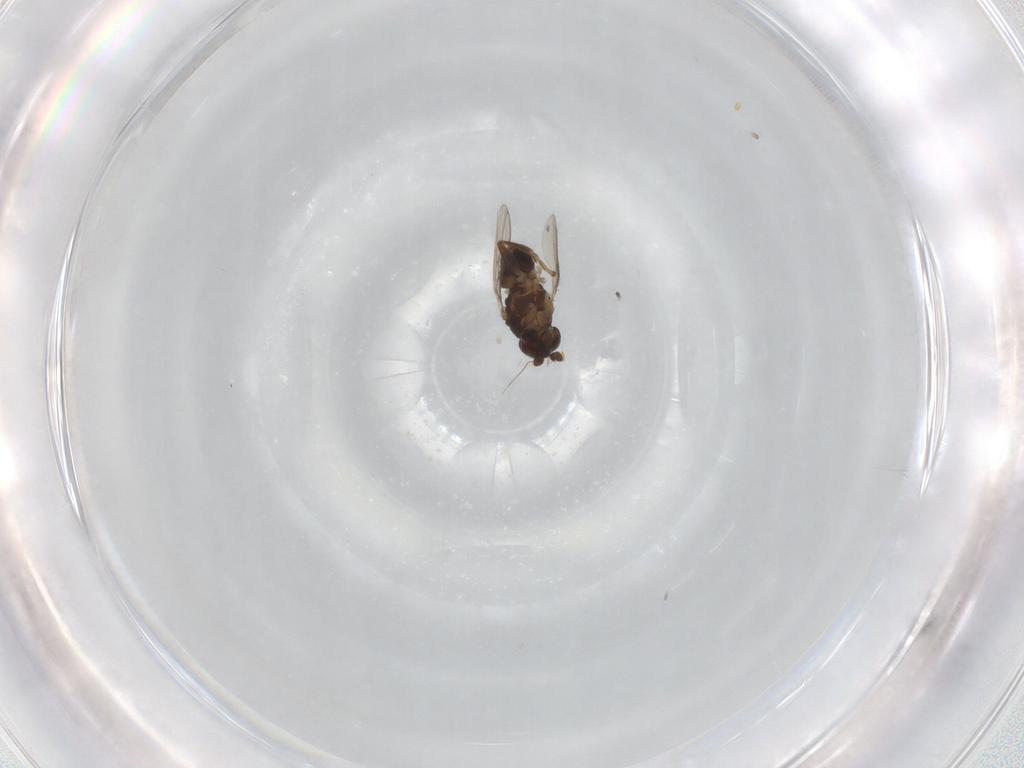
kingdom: Animalia
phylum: Arthropoda
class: Insecta
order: Diptera
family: Sphaeroceridae
